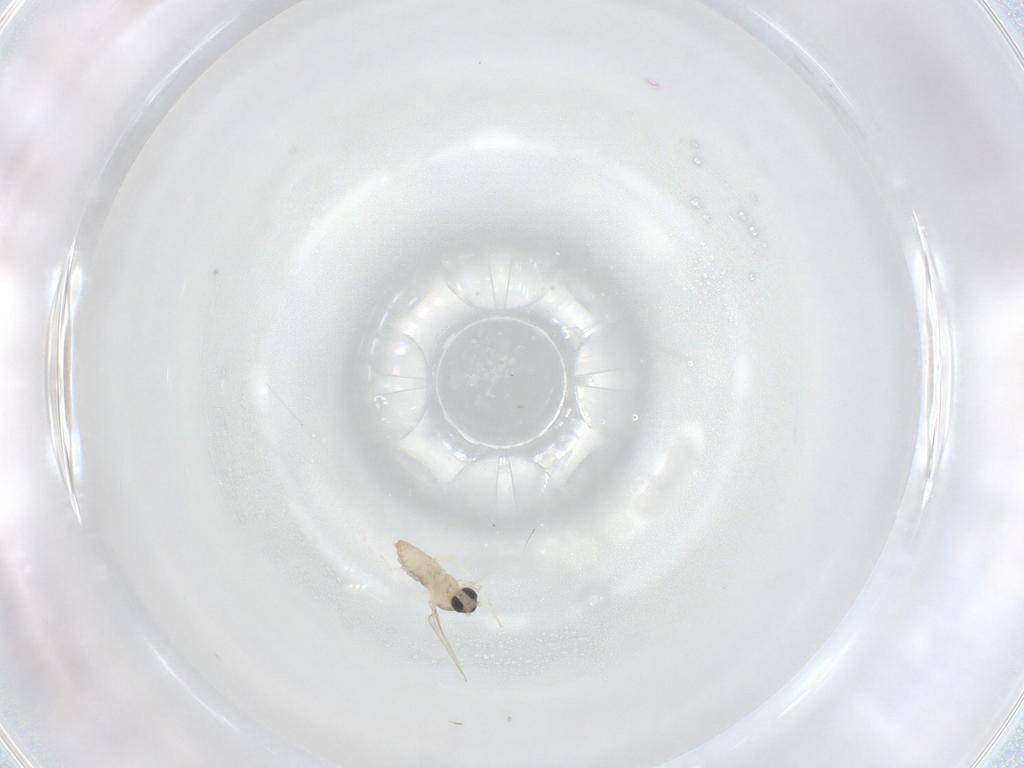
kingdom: Animalia
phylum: Arthropoda
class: Insecta
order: Diptera
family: Cecidomyiidae
